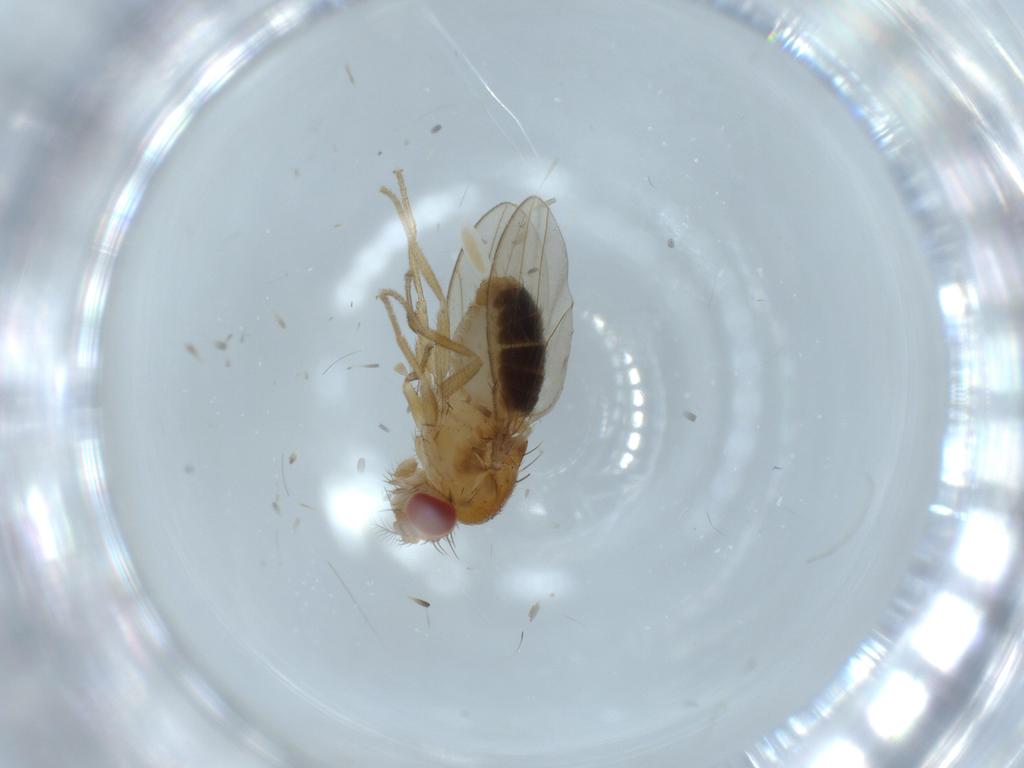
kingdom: Animalia
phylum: Arthropoda
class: Insecta
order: Diptera
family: Drosophilidae
